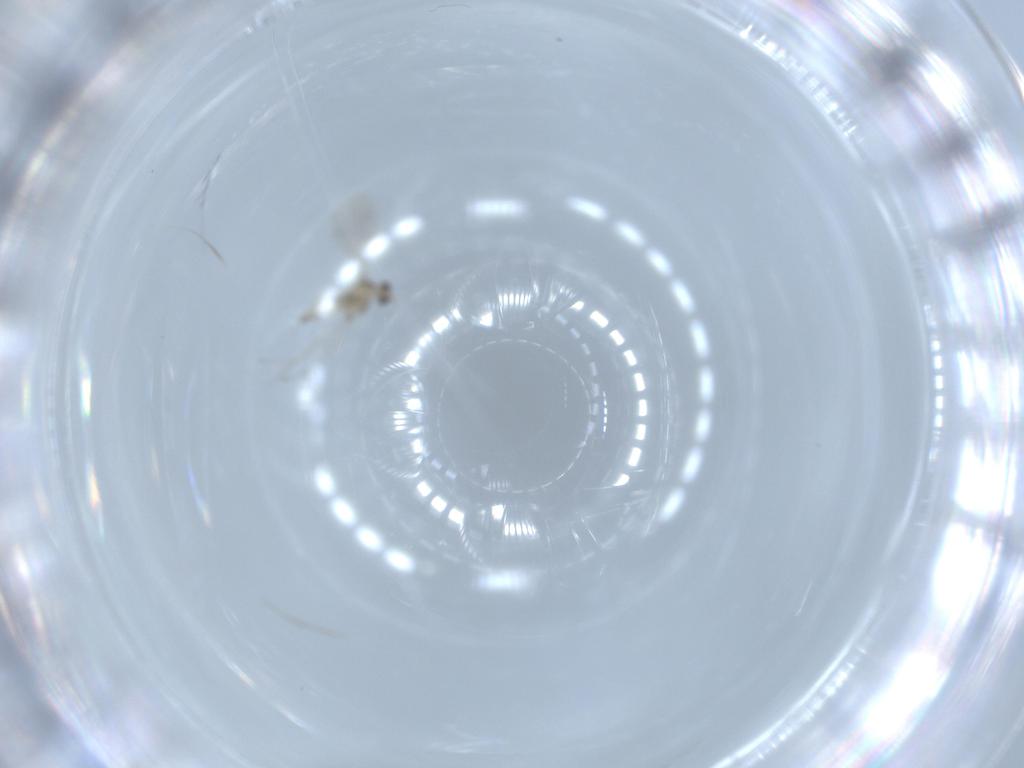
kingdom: Animalia
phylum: Arthropoda
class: Insecta
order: Diptera
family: Cecidomyiidae
